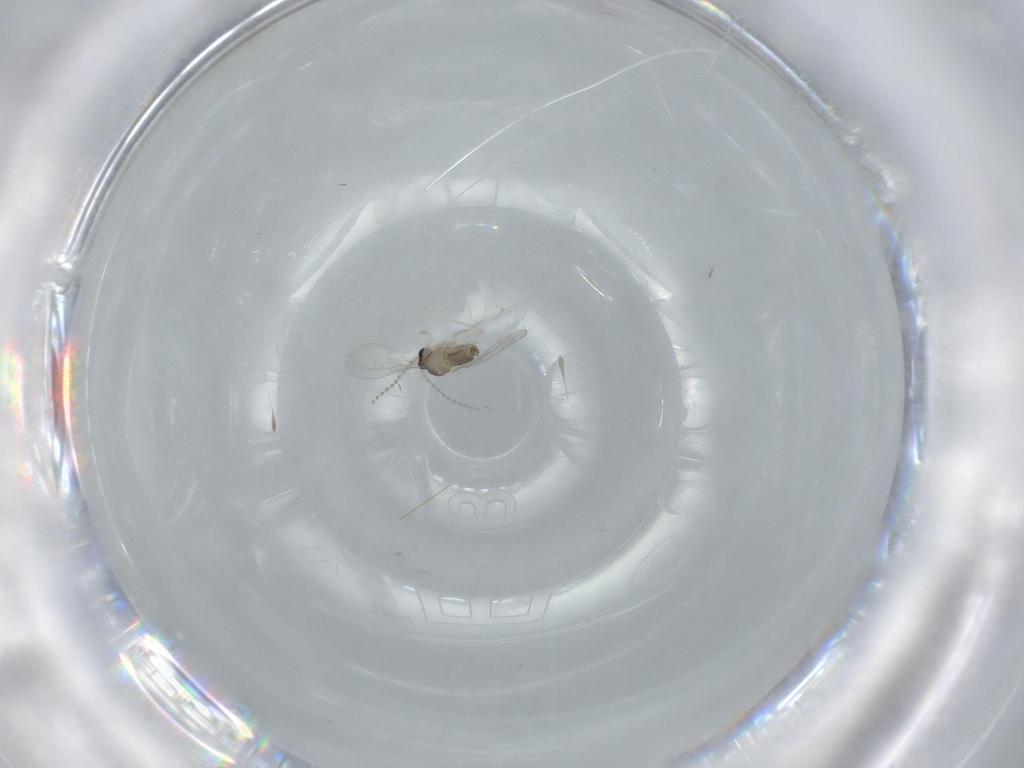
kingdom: Animalia
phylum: Arthropoda
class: Insecta
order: Diptera
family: Cecidomyiidae
